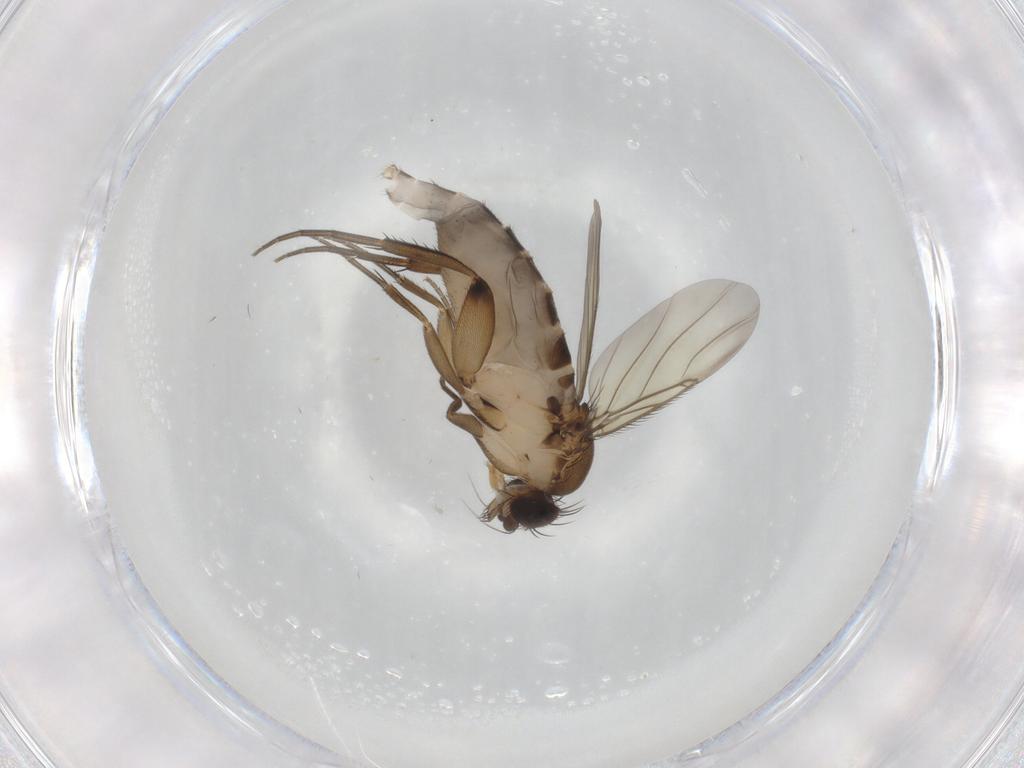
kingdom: Animalia
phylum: Arthropoda
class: Insecta
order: Diptera
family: Phoridae
